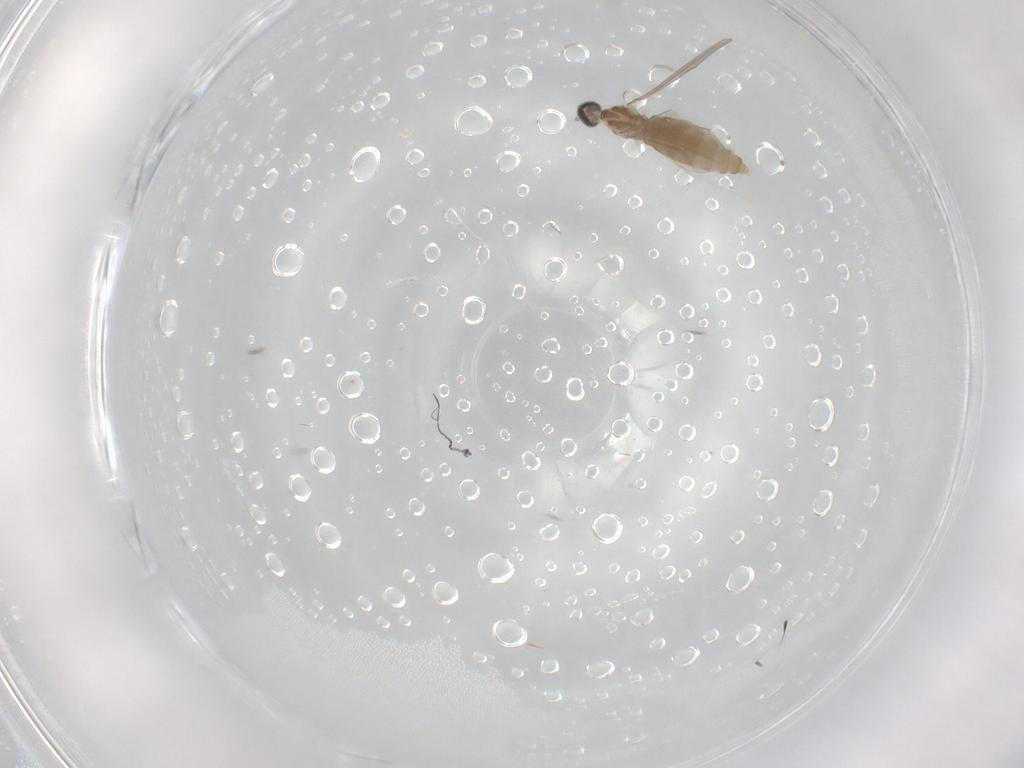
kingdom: Animalia
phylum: Arthropoda
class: Insecta
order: Diptera
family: Cecidomyiidae
